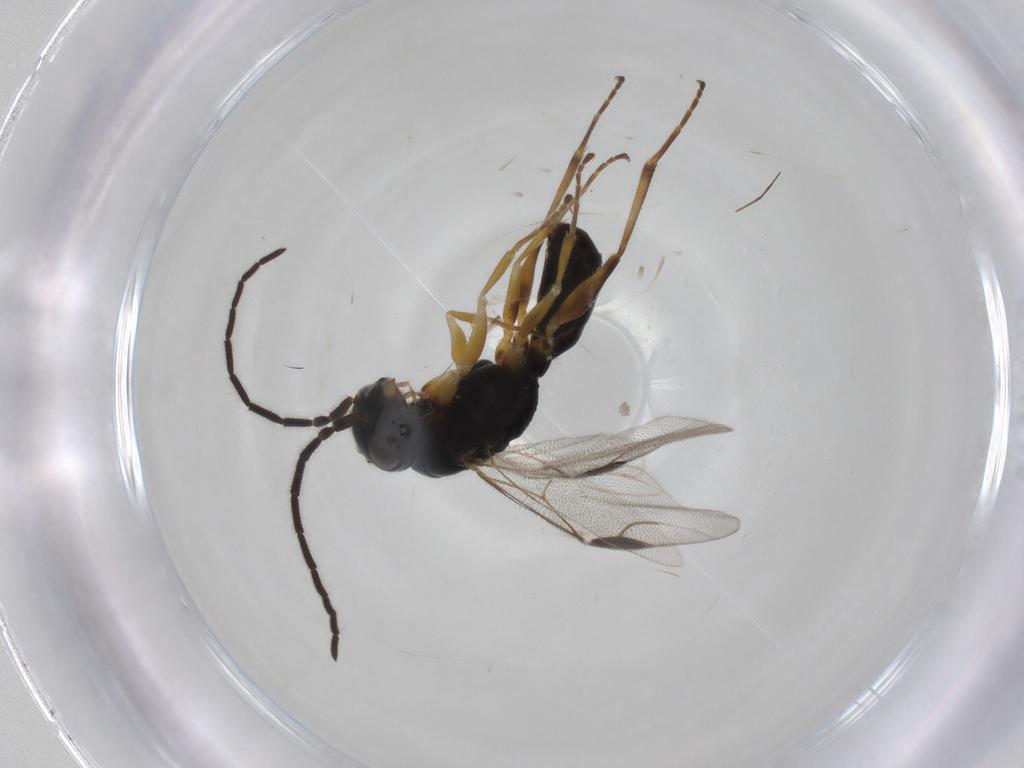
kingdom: Animalia
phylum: Arthropoda
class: Insecta
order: Hymenoptera
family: Dryinidae
